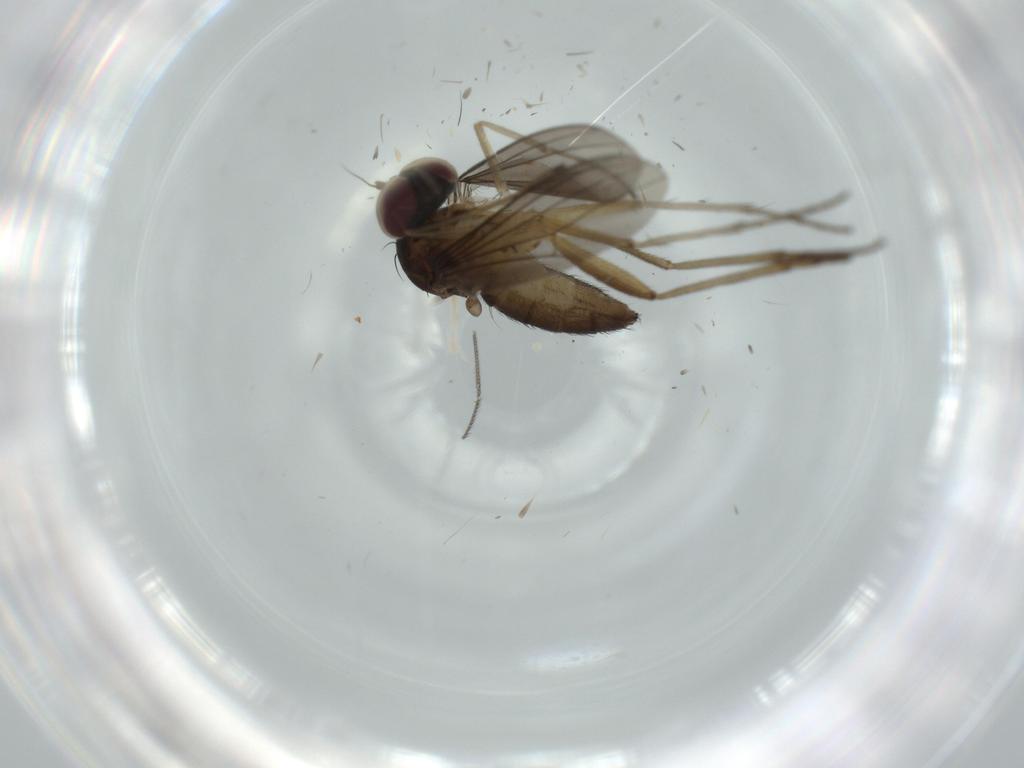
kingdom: Animalia
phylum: Arthropoda
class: Insecta
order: Diptera
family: Dolichopodidae
